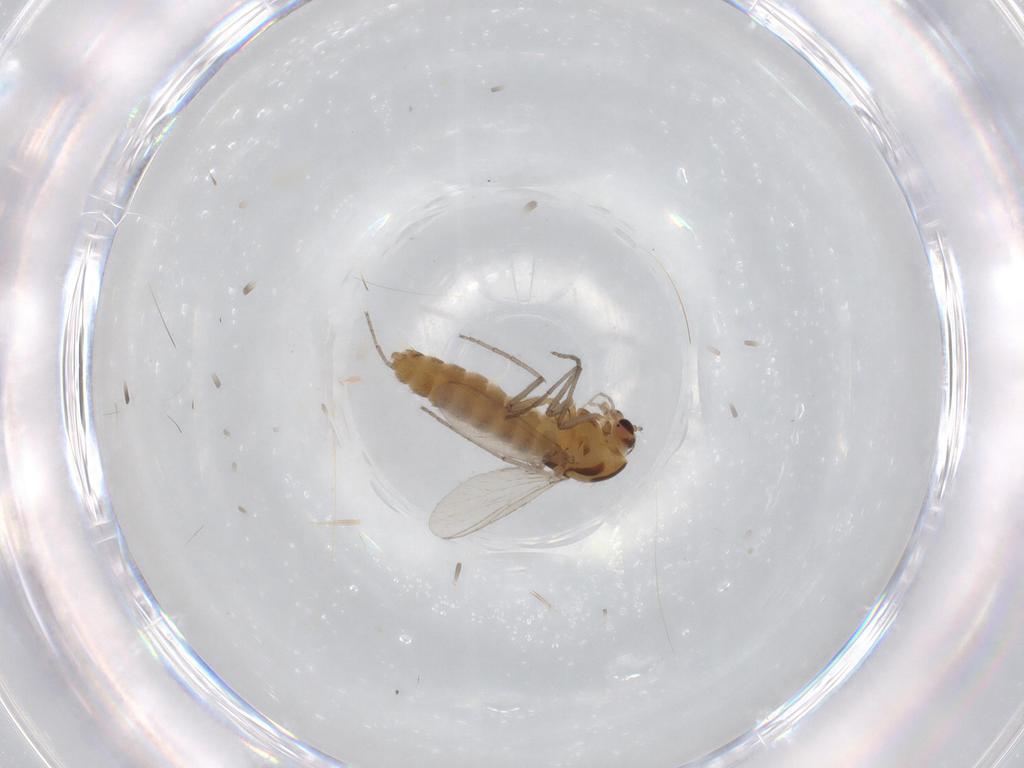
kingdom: Animalia
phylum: Arthropoda
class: Insecta
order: Diptera
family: Chironomidae
